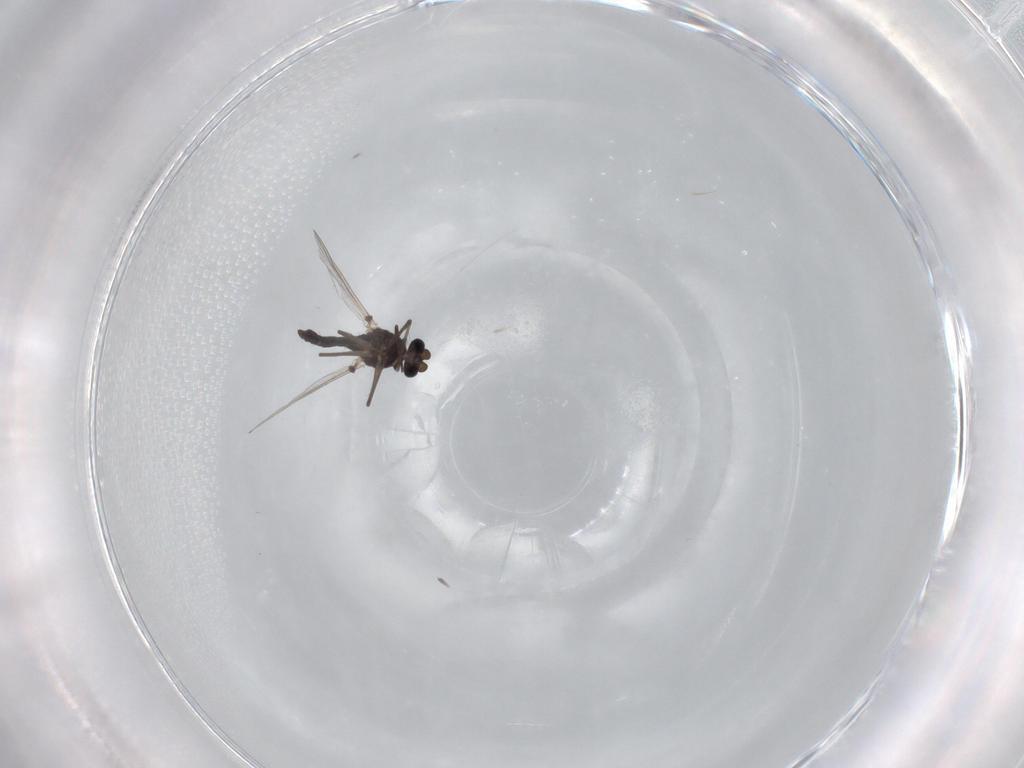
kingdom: Animalia
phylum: Arthropoda
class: Insecta
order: Diptera
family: Chironomidae
